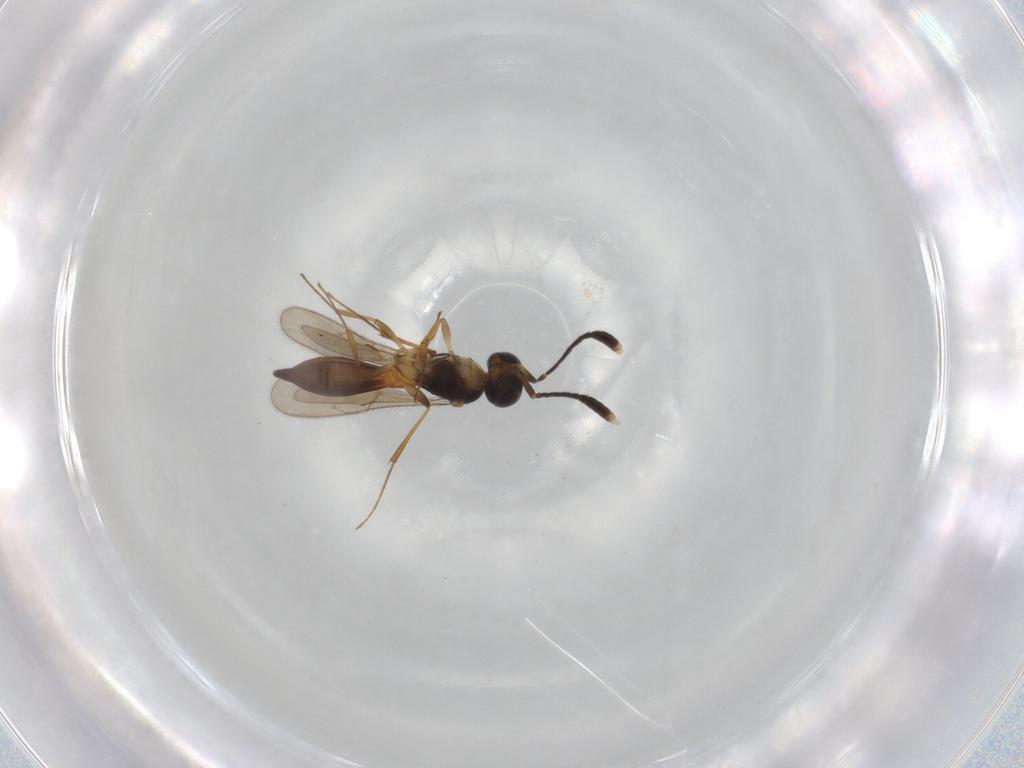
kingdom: Animalia
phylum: Arthropoda
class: Insecta
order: Hymenoptera
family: Scelionidae
